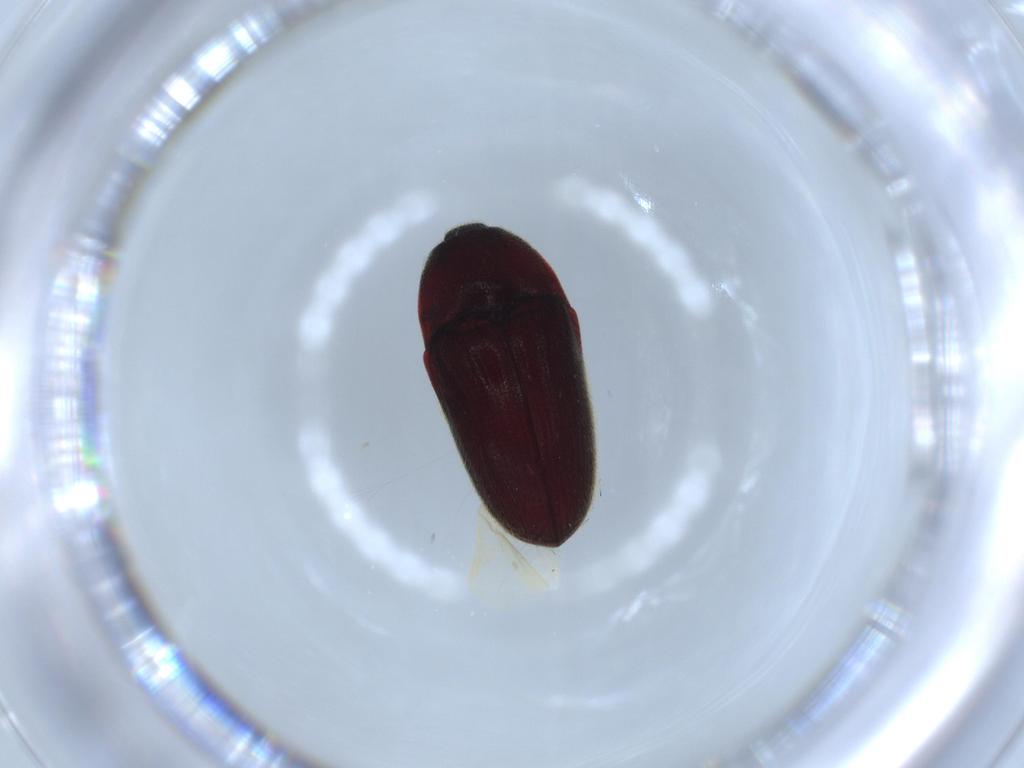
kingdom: Animalia
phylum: Arthropoda
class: Insecta
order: Coleoptera
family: Throscidae
